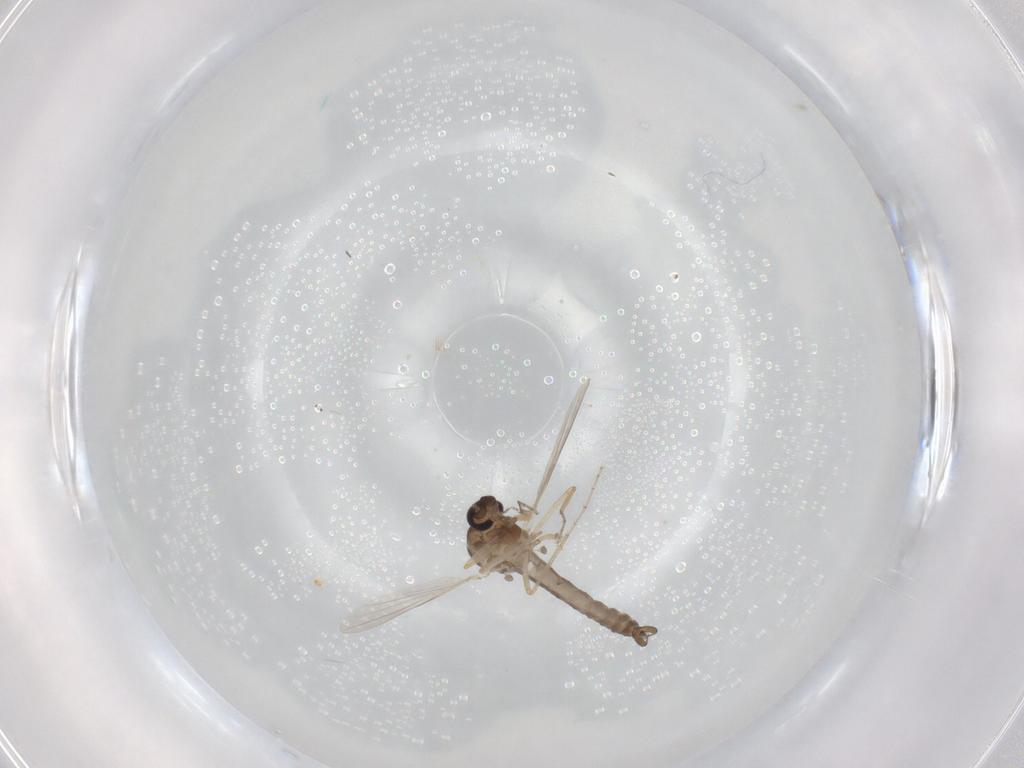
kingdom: Animalia
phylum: Arthropoda
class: Insecta
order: Diptera
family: Ceratopogonidae
